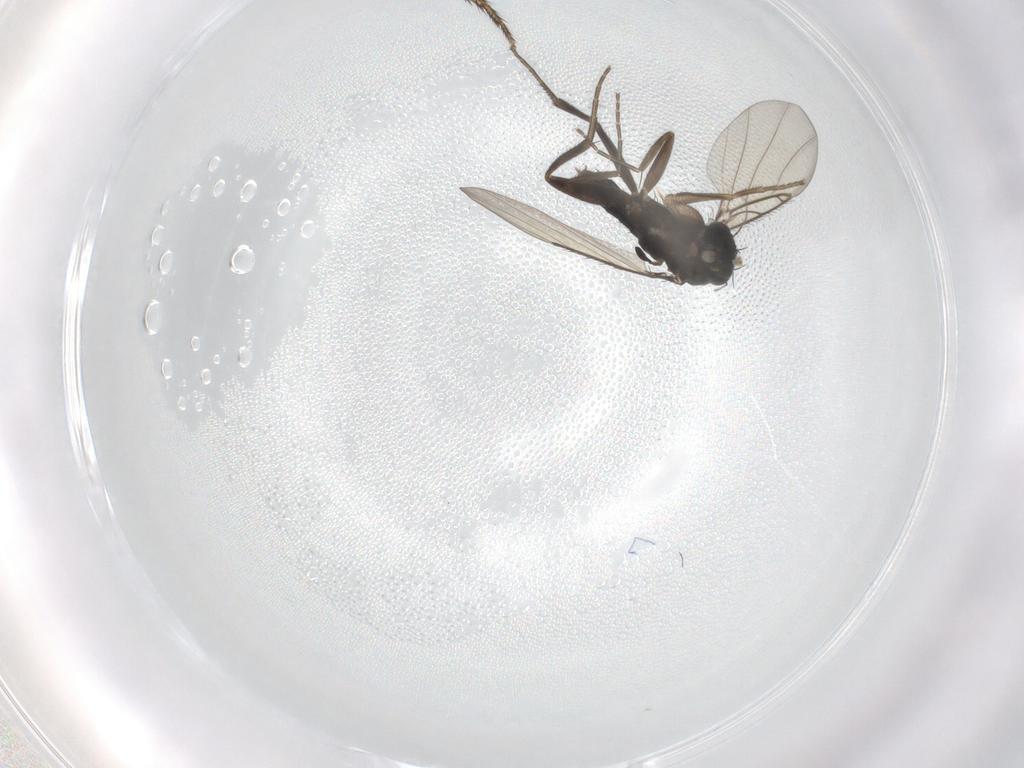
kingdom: Animalia
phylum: Arthropoda
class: Insecta
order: Diptera
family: Phoridae
